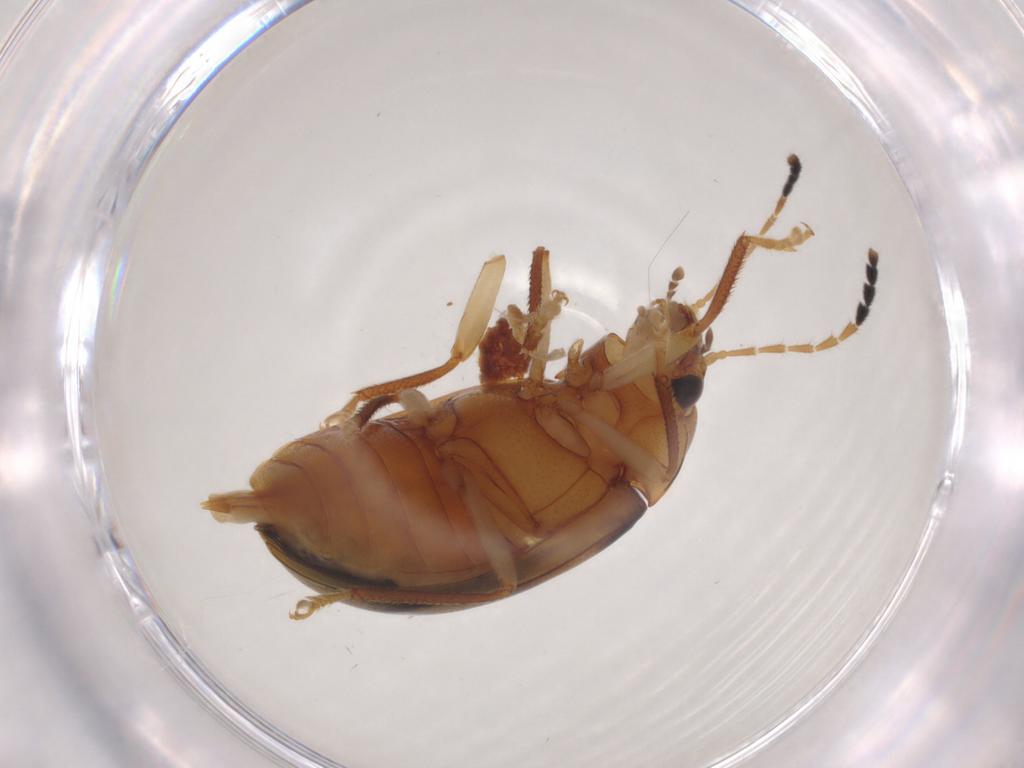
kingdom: Animalia
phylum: Arthropoda
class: Insecta
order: Coleoptera
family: Ptilodactylidae
